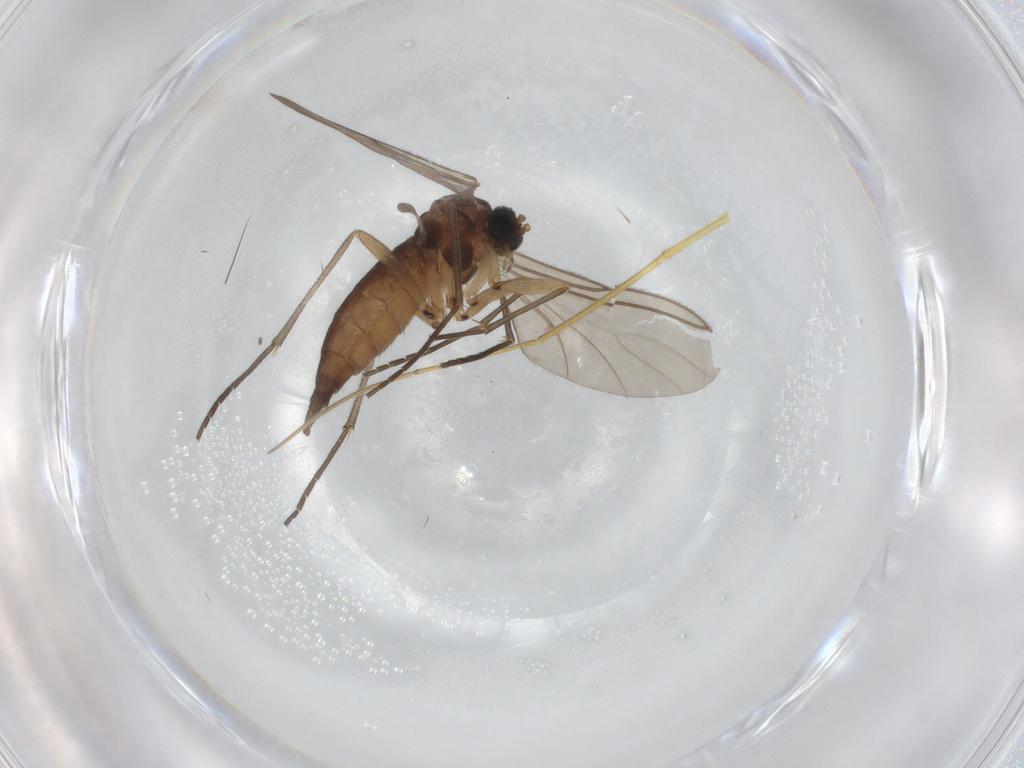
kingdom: Animalia
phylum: Arthropoda
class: Insecta
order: Diptera
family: Sciaridae
